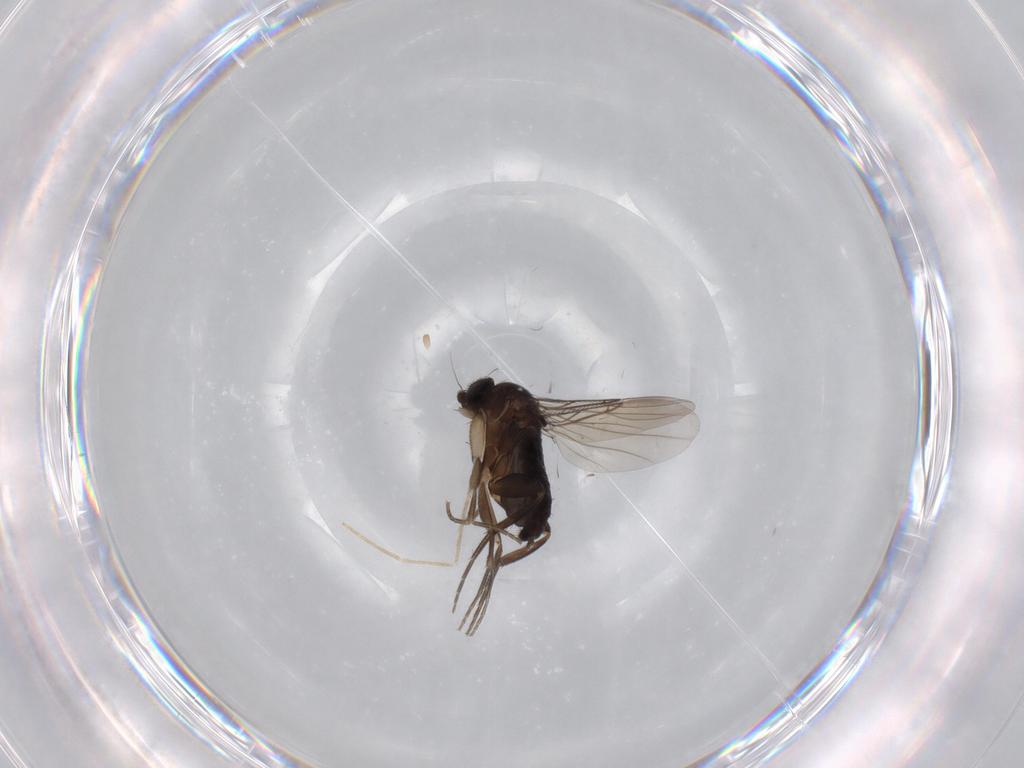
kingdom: Animalia
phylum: Arthropoda
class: Insecta
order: Diptera
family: Phoridae
